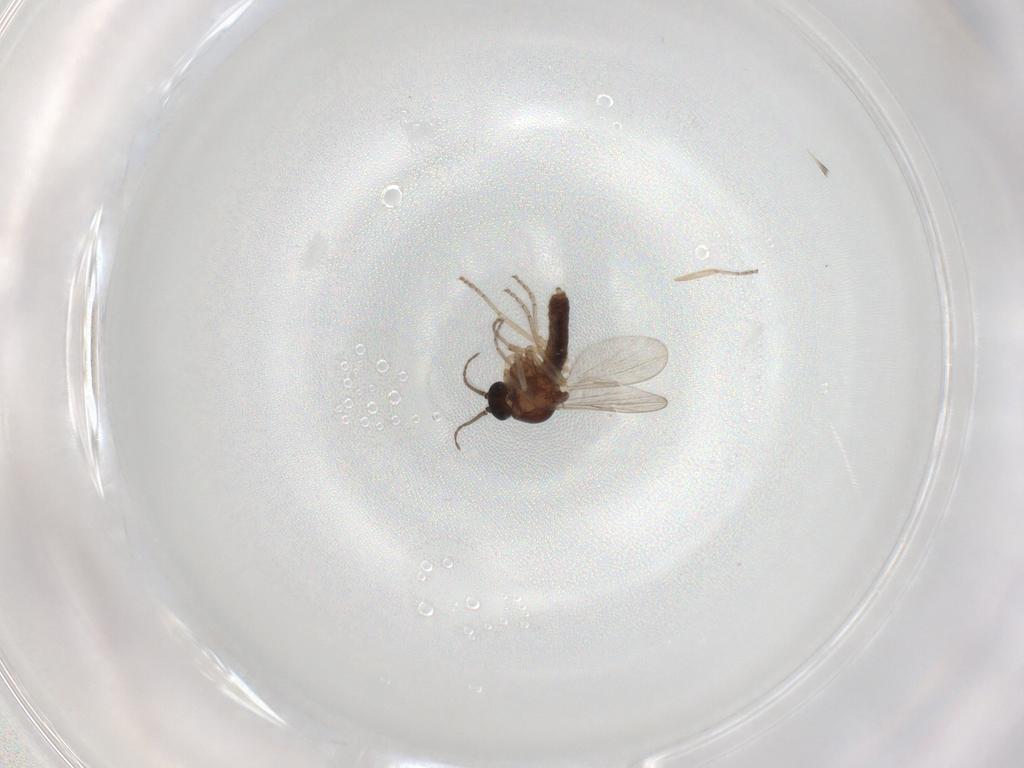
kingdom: Animalia
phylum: Arthropoda
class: Insecta
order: Diptera
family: Ceratopogonidae
